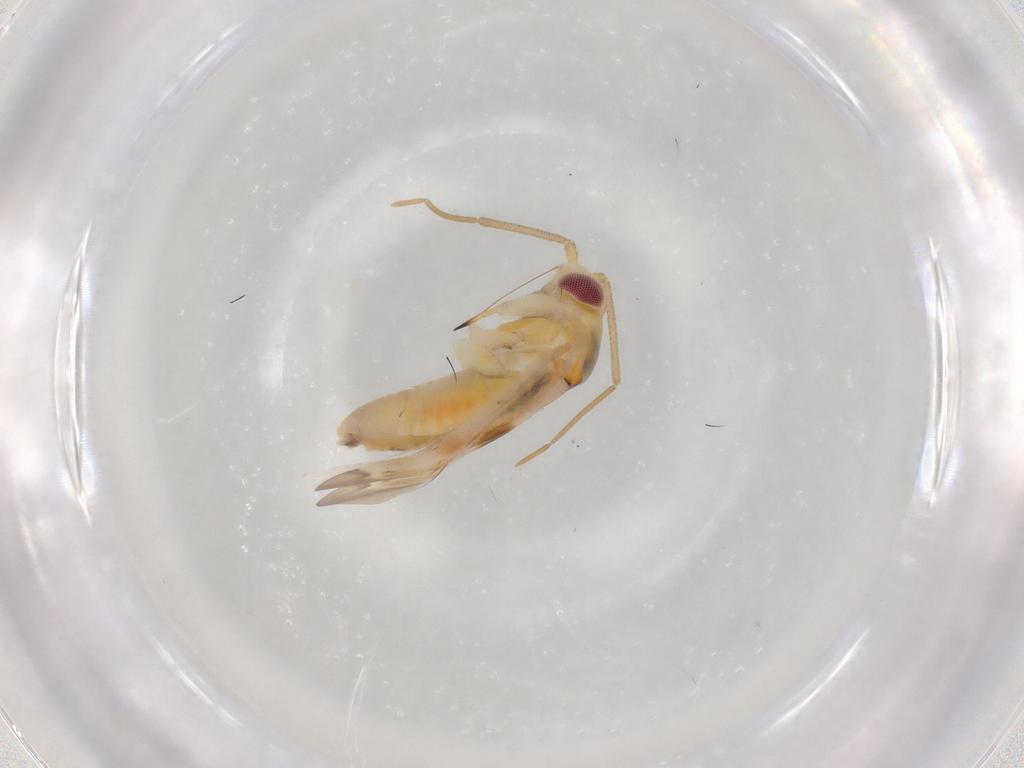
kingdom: Animalia
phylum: Arthropoda
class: Insecta
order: Hemiptera
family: Miridae
